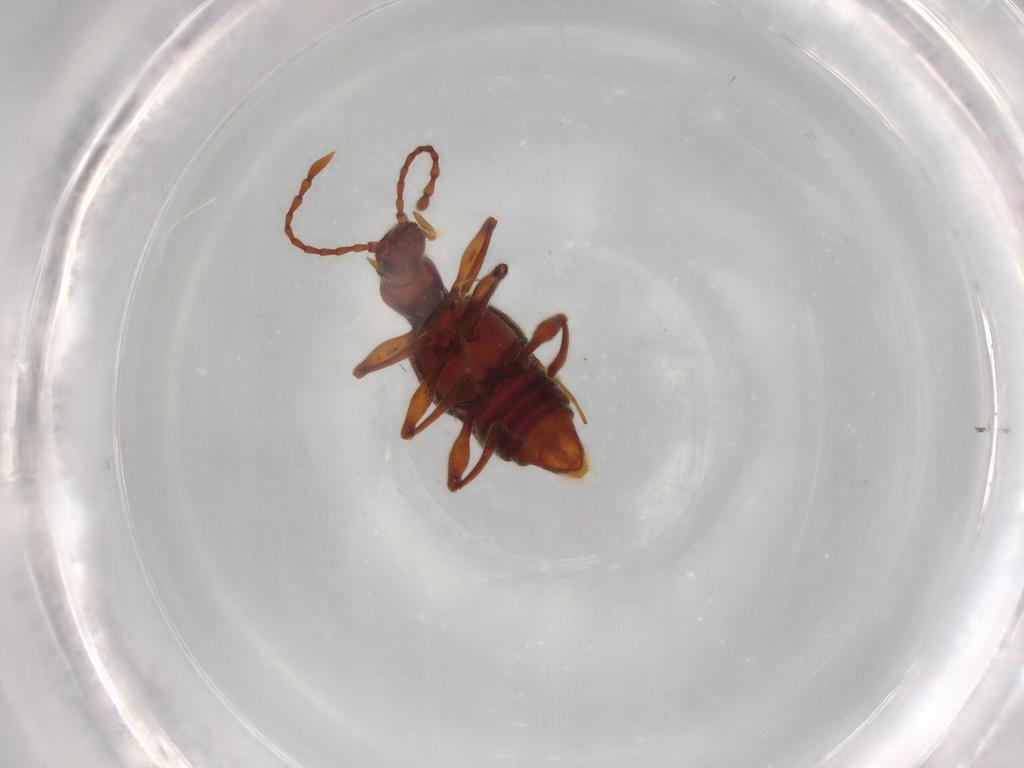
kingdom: Animalia
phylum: Arthropoda
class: Insecta
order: Coleoptera
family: Staphylinidae
